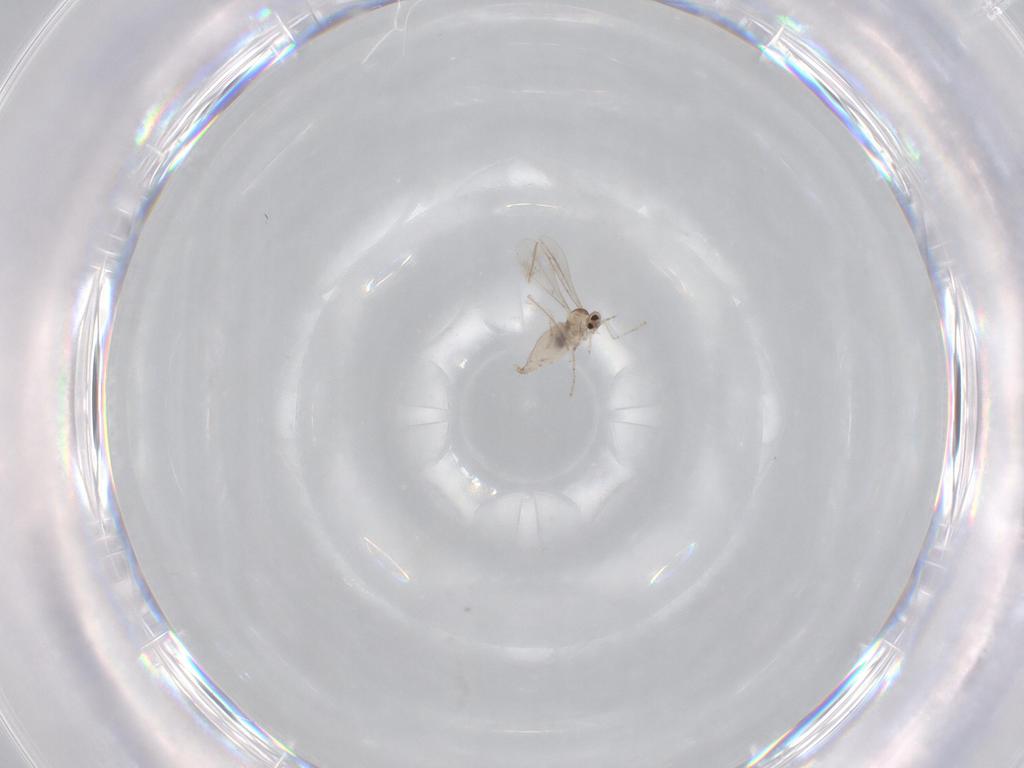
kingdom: Animalia
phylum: Arthropoda
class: Insecta
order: Diptera
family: Cecidomyiidae
